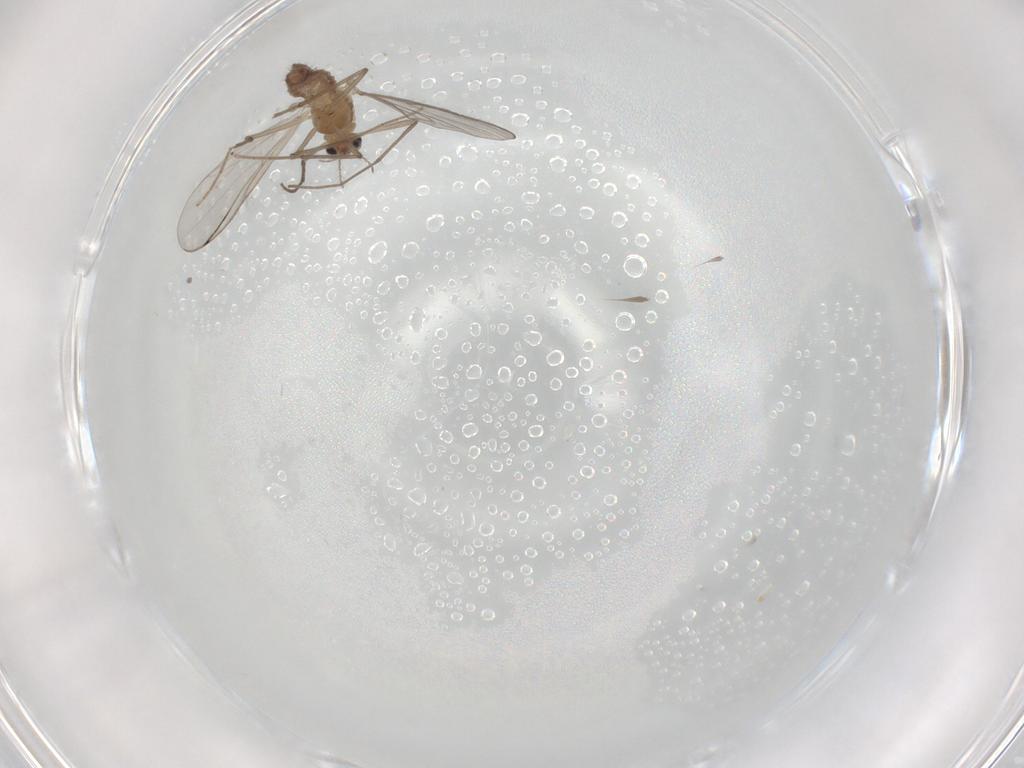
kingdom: Animalia
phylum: Arthropoda
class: Insecta
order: Diptera
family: Chironomidae
